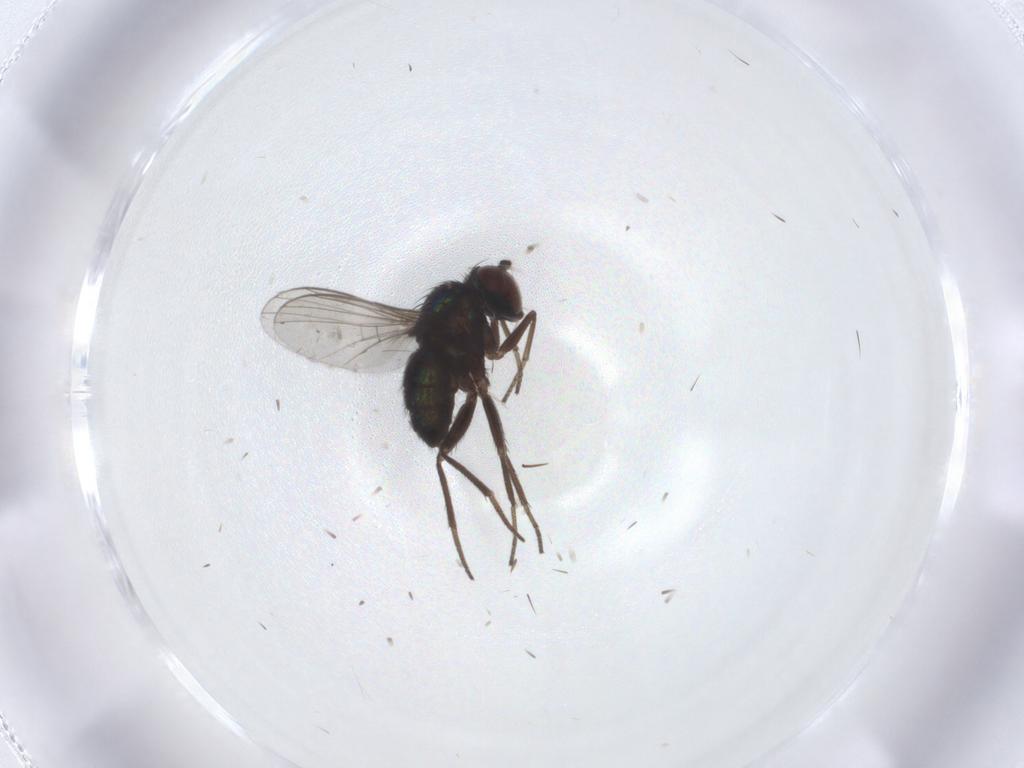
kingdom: Animalia
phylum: Arthropoda
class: Insecta
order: Diptera
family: Dolichopodidae
